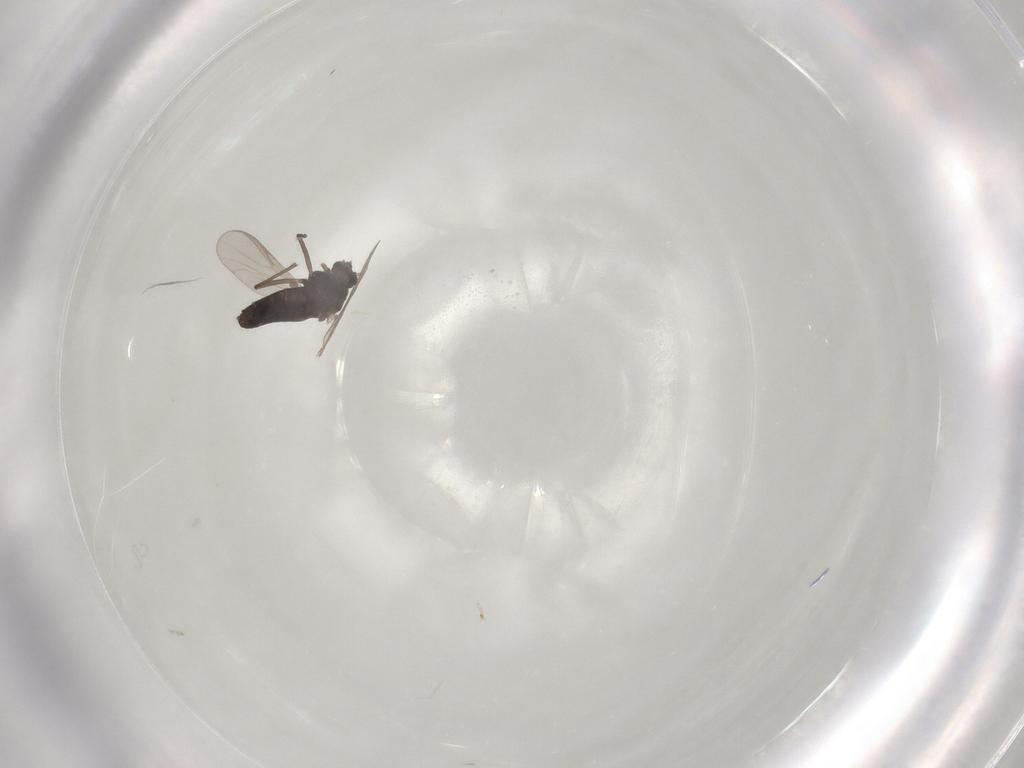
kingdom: Animalia
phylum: Arthropoda
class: Insecta
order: Diptera
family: Chironomidae
